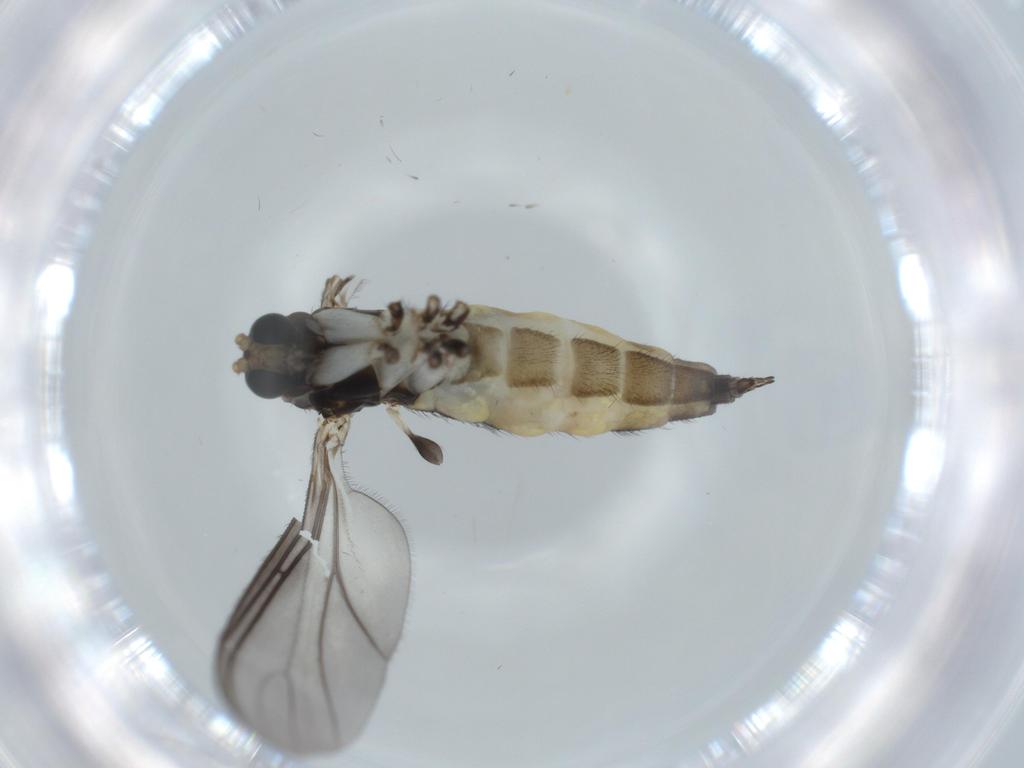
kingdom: Animalia
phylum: Arthropoda
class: Insecta
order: Diptera
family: Sciaridae
